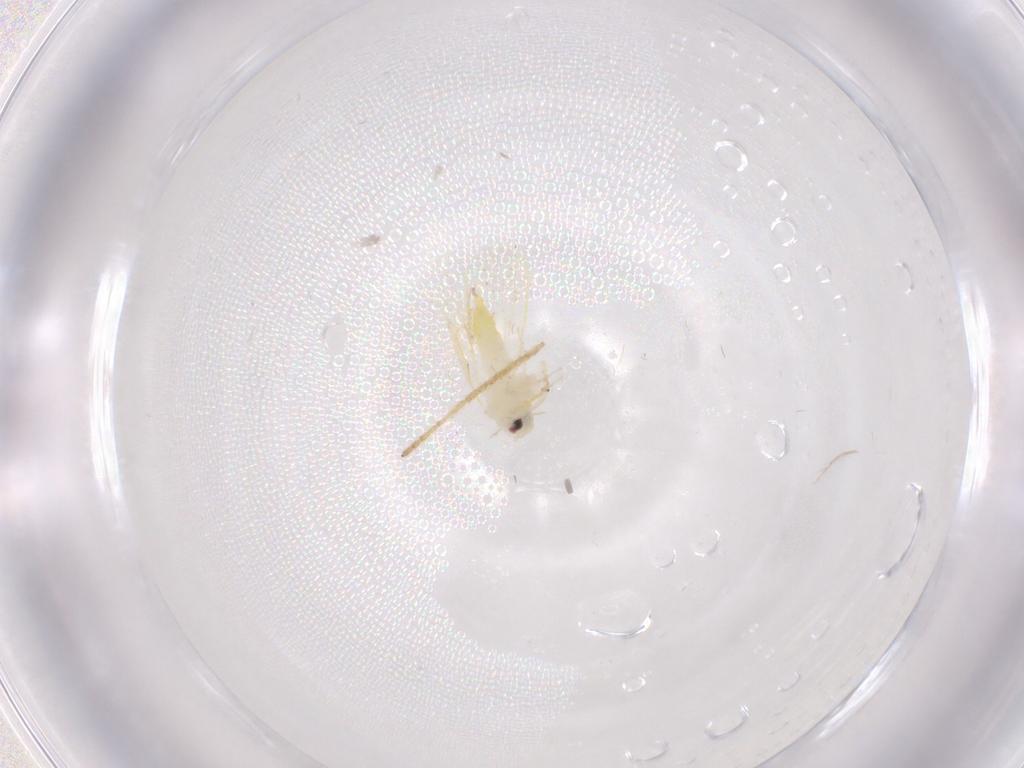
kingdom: Animalia
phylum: Arthropoda
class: Insecta
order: Hemiptera
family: Aleyrodidae
